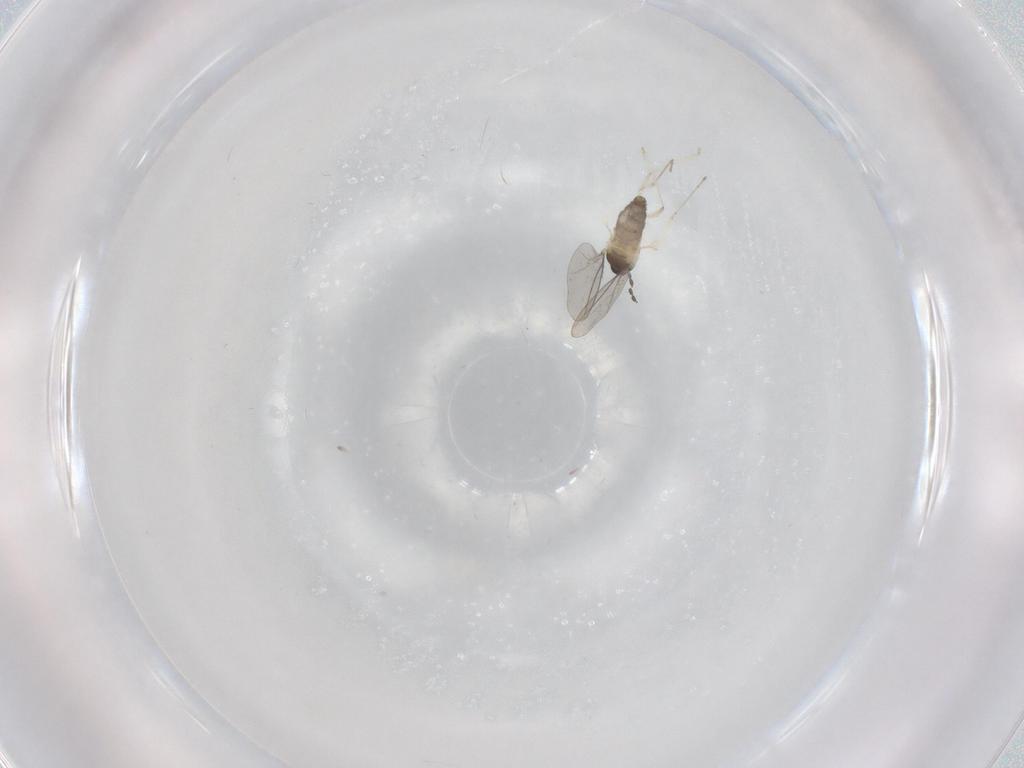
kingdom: Animalia
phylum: Arthropoda
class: Insecta
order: Diptera
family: Cecidomyiidae
